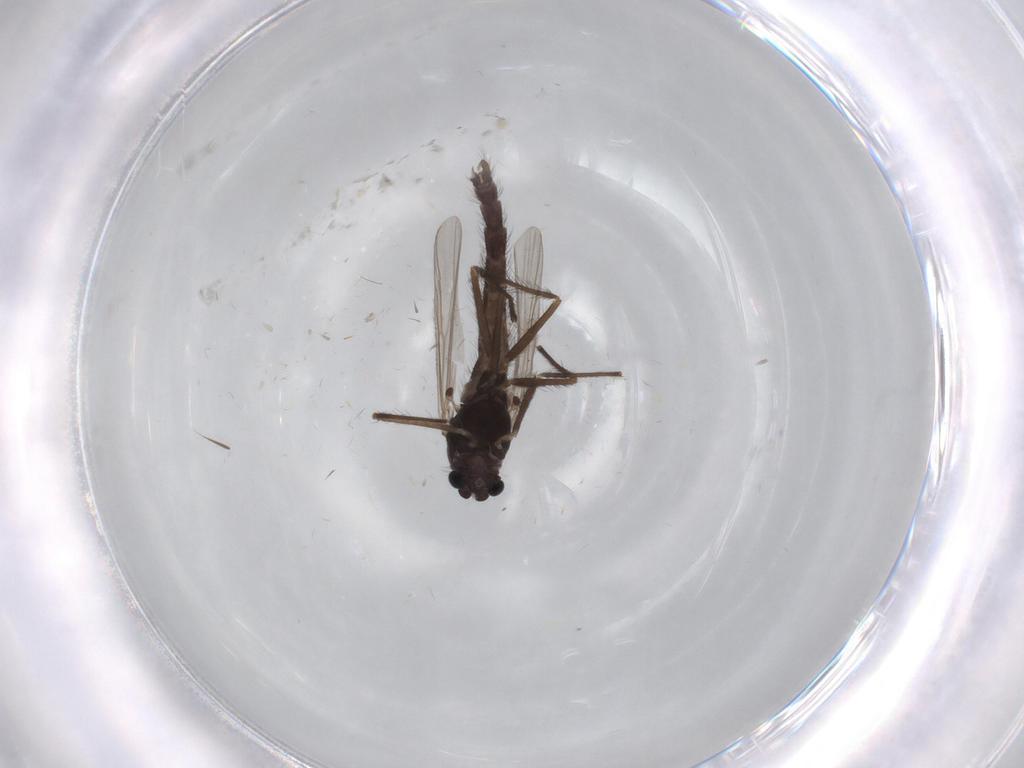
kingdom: Animalia
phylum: Arthropoda
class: Insecta
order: Diptera
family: Chironomidae
